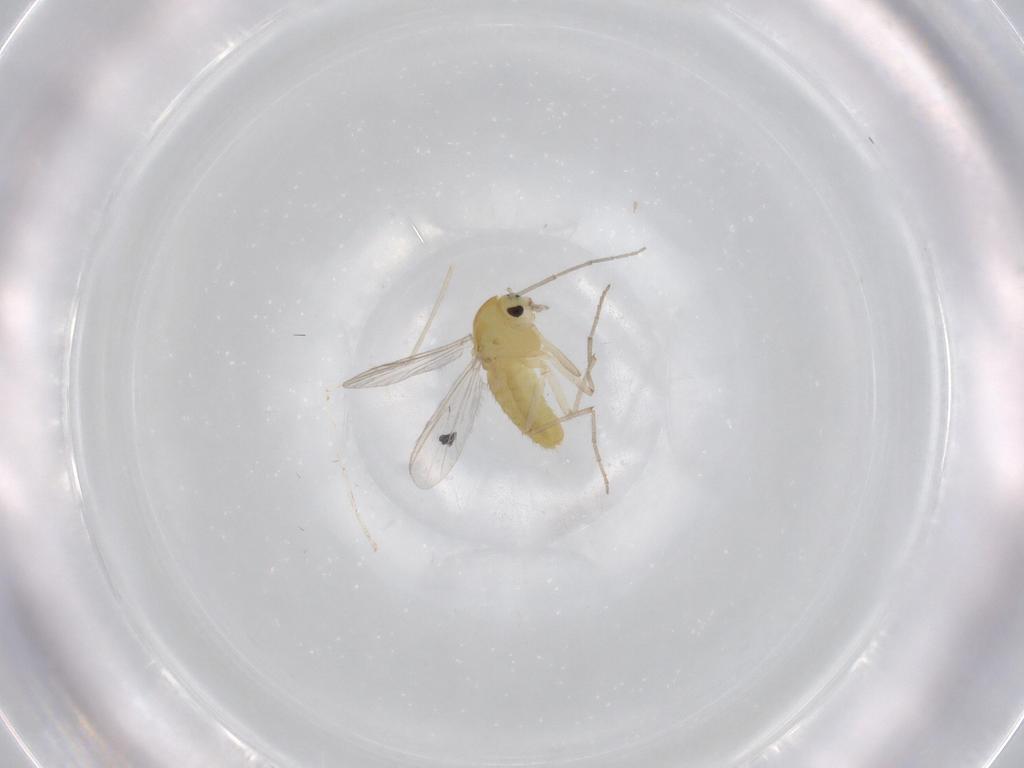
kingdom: Animalia
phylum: Arthropoda
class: Insecta
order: Diptera
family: Chironomidae
